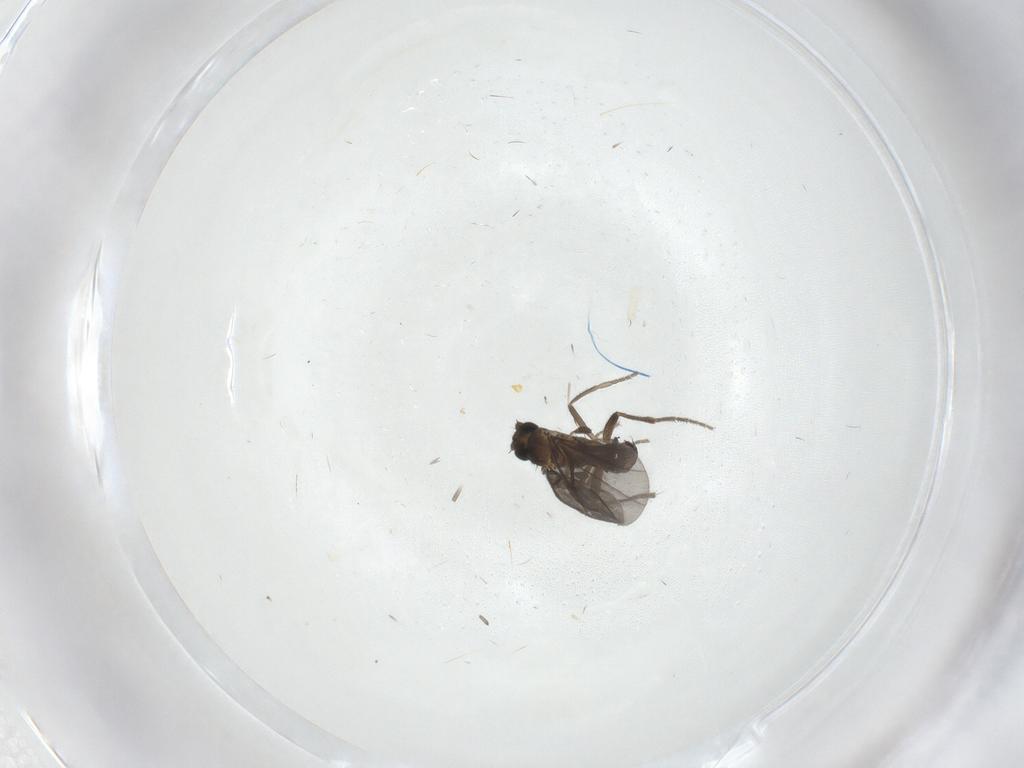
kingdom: Animalia
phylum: Arthropoda
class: Insecta
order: Diptera
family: Phoridae
